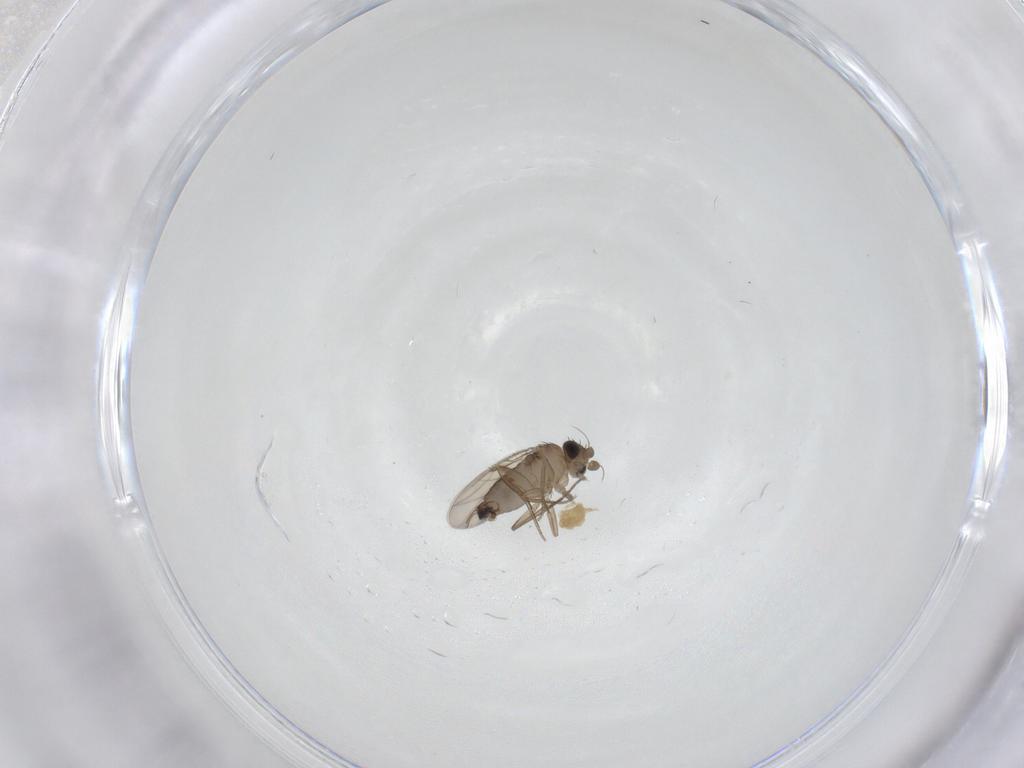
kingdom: Animalia
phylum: Arthropoda
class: Insecta
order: Diptera
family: Phoridae
